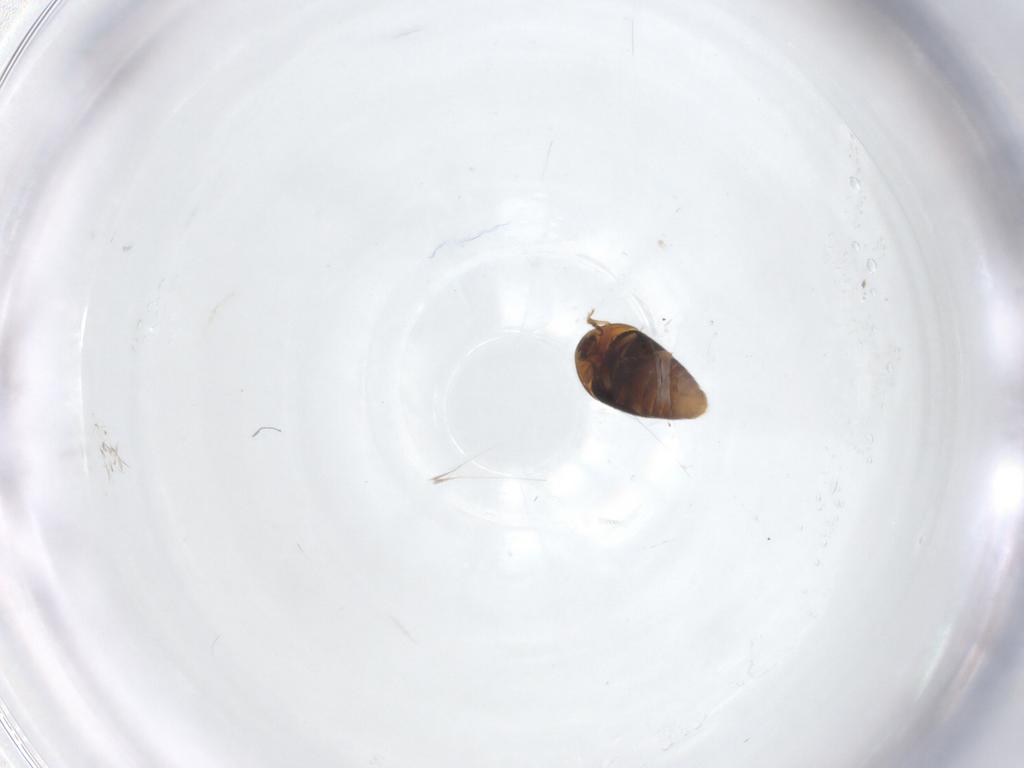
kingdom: Animalia
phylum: Arthropoda
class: Insecta
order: Coleoptera
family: Corylophidae
